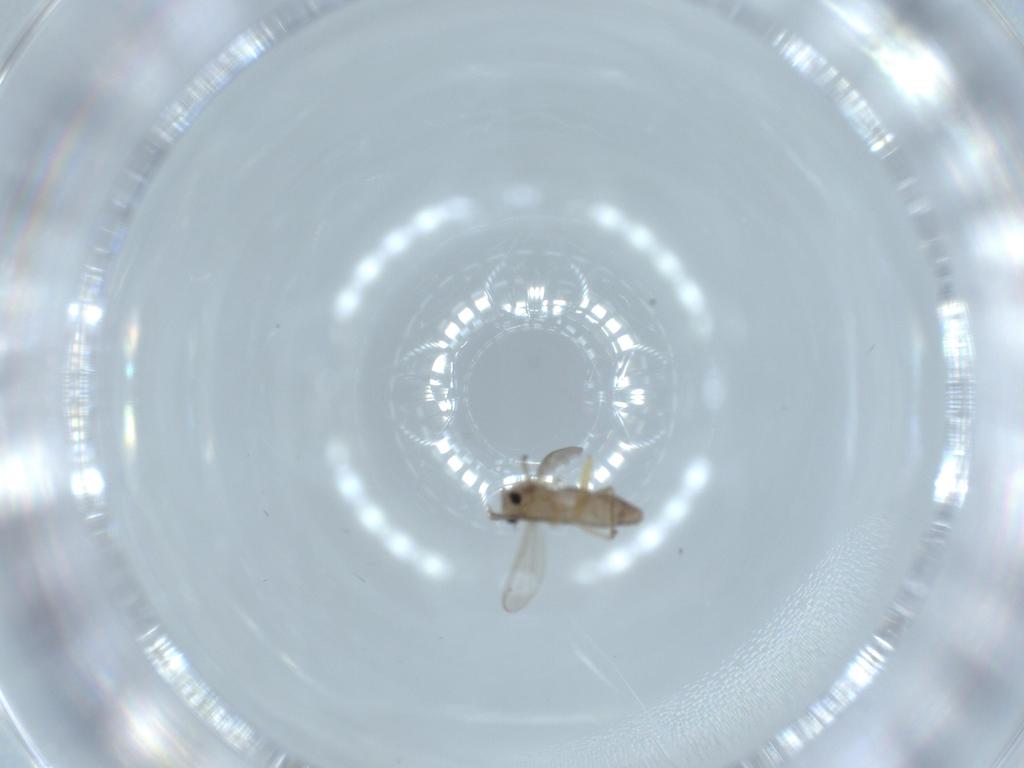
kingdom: Animalia
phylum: Arthropoda
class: Insecta
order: Diptera
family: Chironomidae
